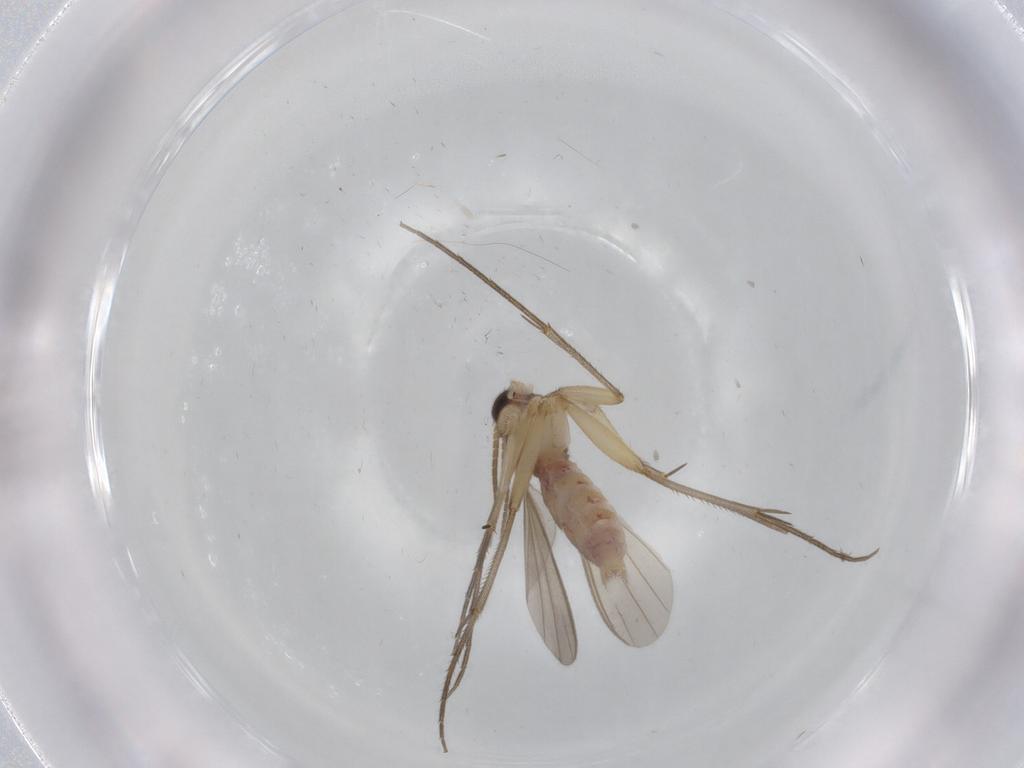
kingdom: Animalia
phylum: Arthropoda
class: Insecta
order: Diptera
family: Mycetophilidae
